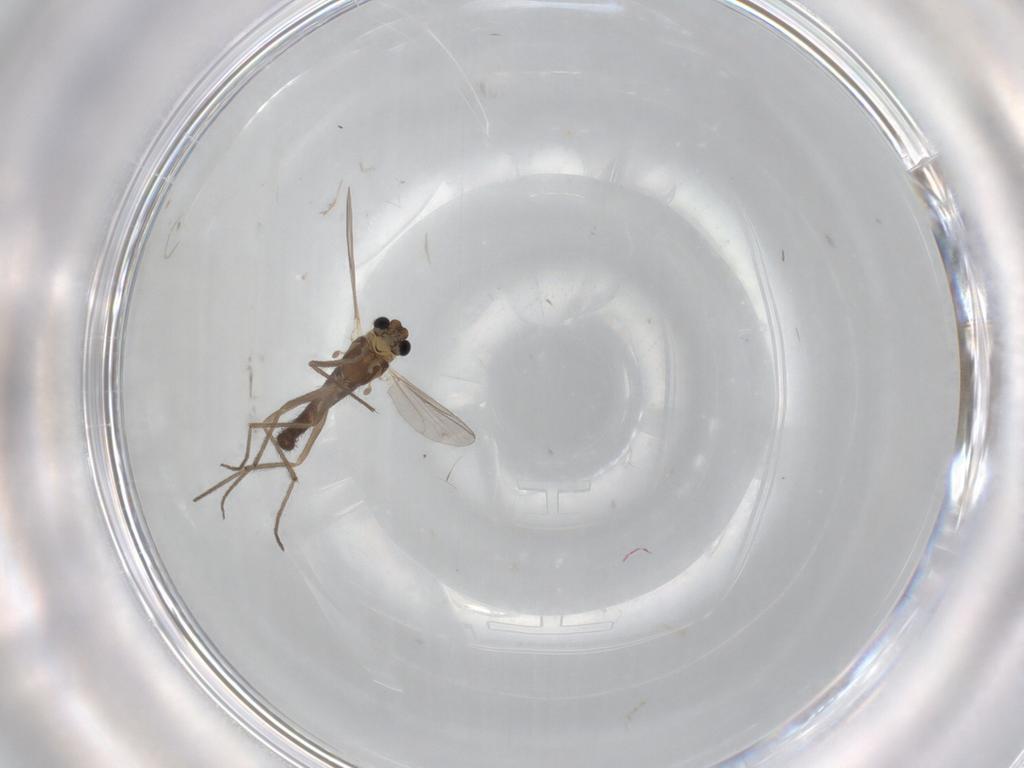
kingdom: Animalia
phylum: Arthropoda
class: Insecta
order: Diptera
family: Chironomidae
